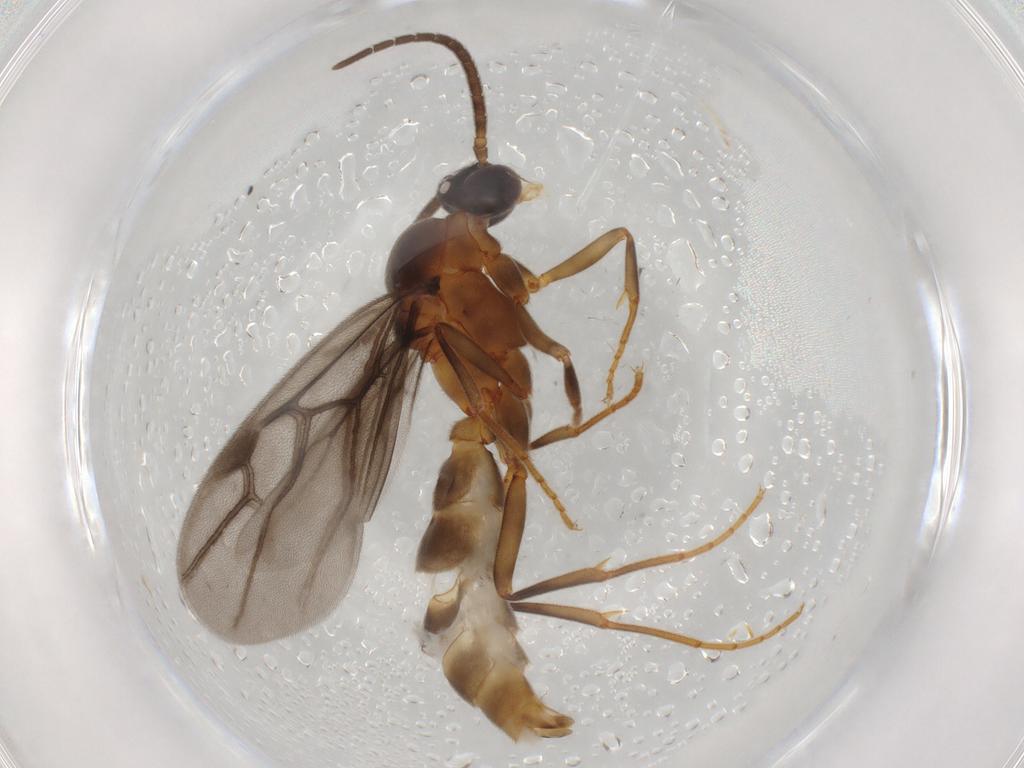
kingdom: Animalia
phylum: Arthropoda
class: Insecta
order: Hymenoptera
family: Formicidae
